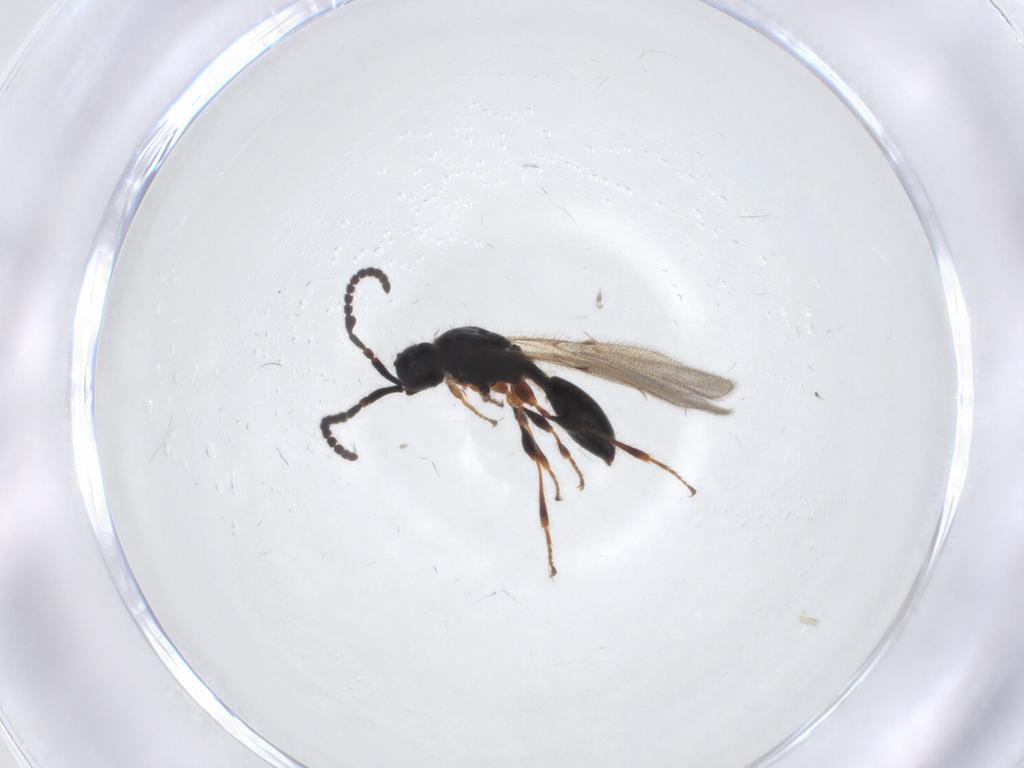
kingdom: Animalia
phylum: Arthropoda
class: Insecta
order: Hymenoptera
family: Diapriidae
